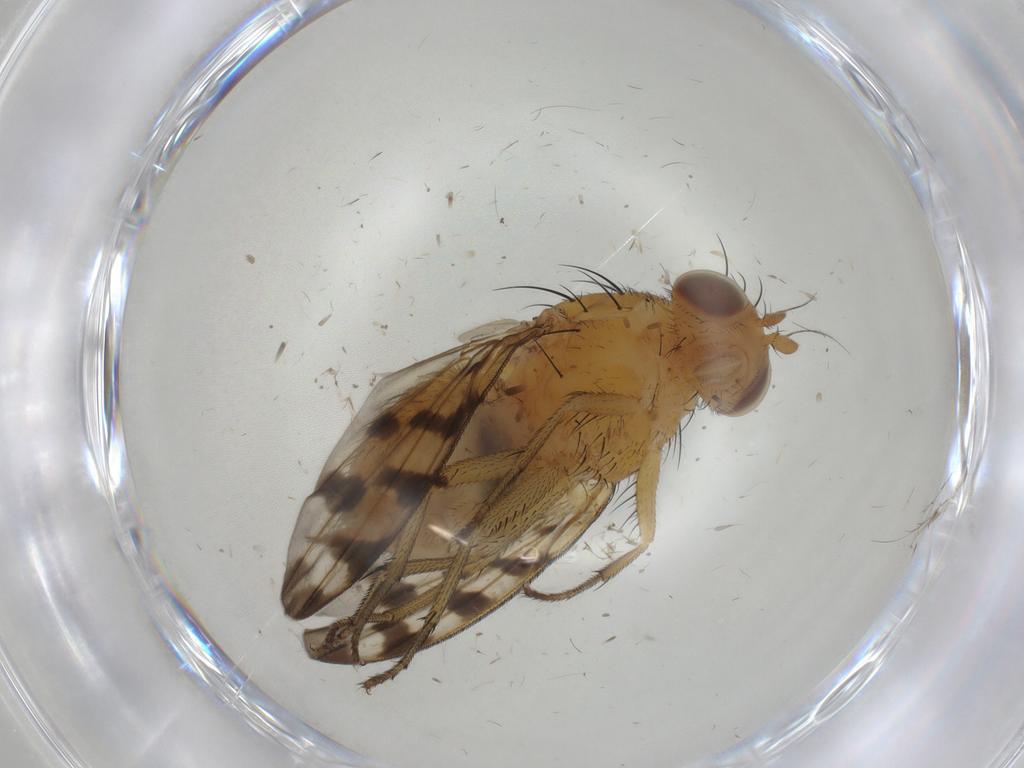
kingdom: Animalia
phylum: Arthropoda
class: Insecta
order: Diptera
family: Cecidomyiidae
